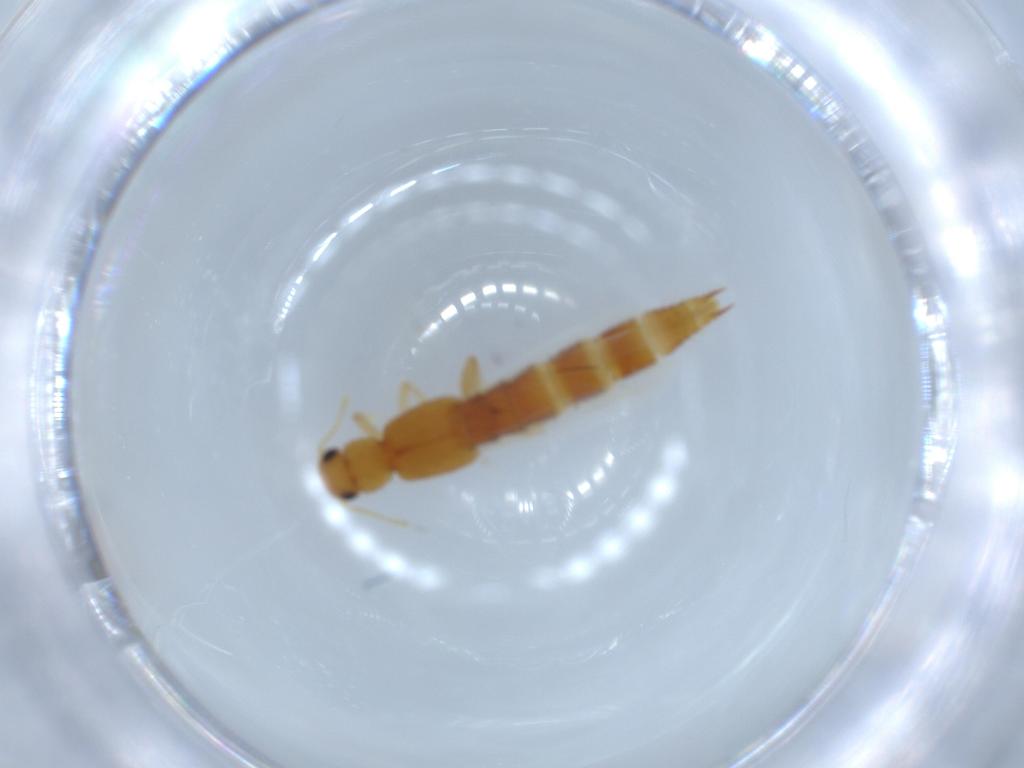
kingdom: Animalia
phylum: Arthropoda
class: Insecta
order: Coleoptera
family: Staphylinidae
